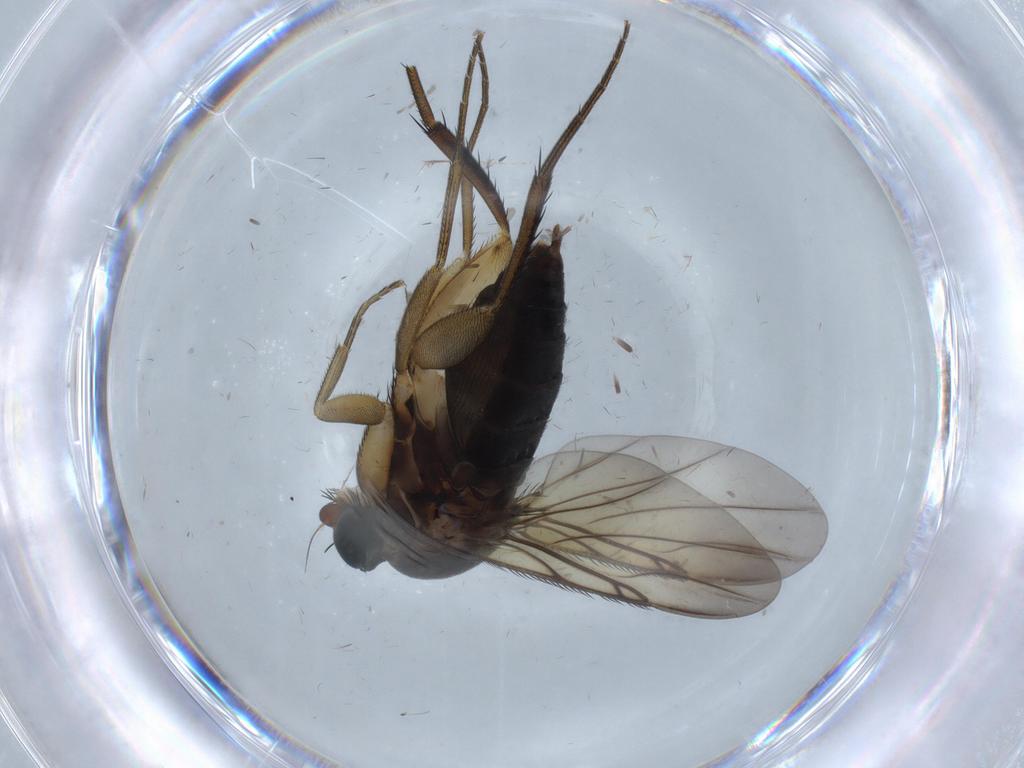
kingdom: Animalia
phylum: Arthropoda
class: Insecta
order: Diptera
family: Phoridae
